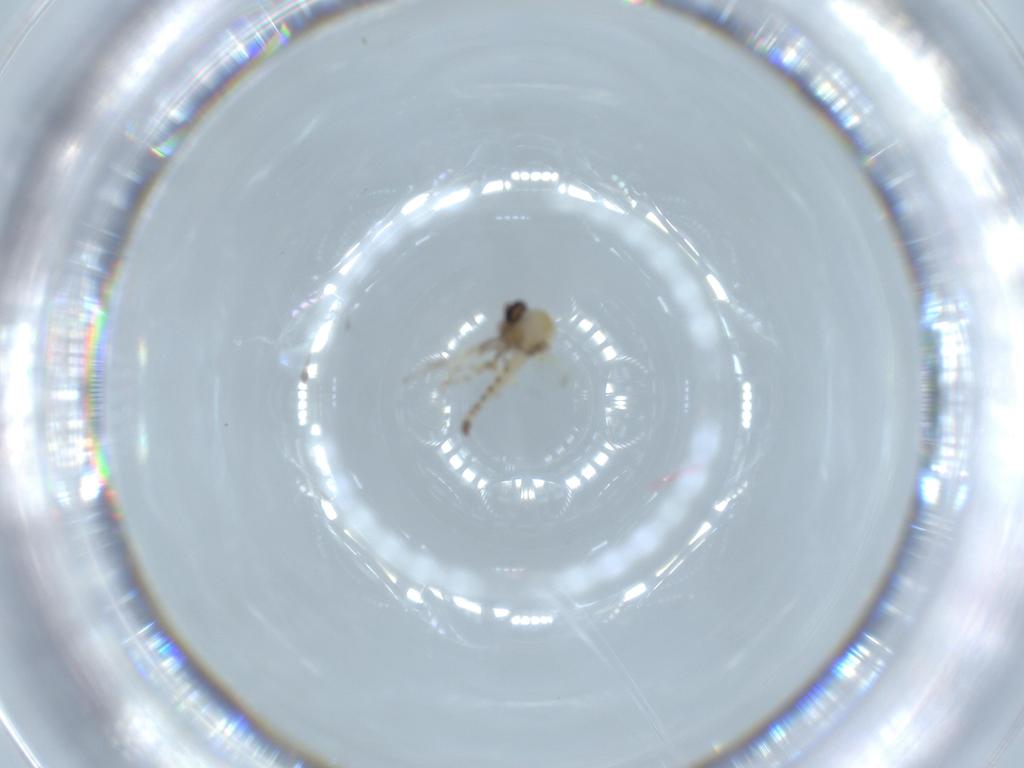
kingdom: Animalia
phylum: Arthropoda
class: Insecta
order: Diptera
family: Ceratopogonidae
